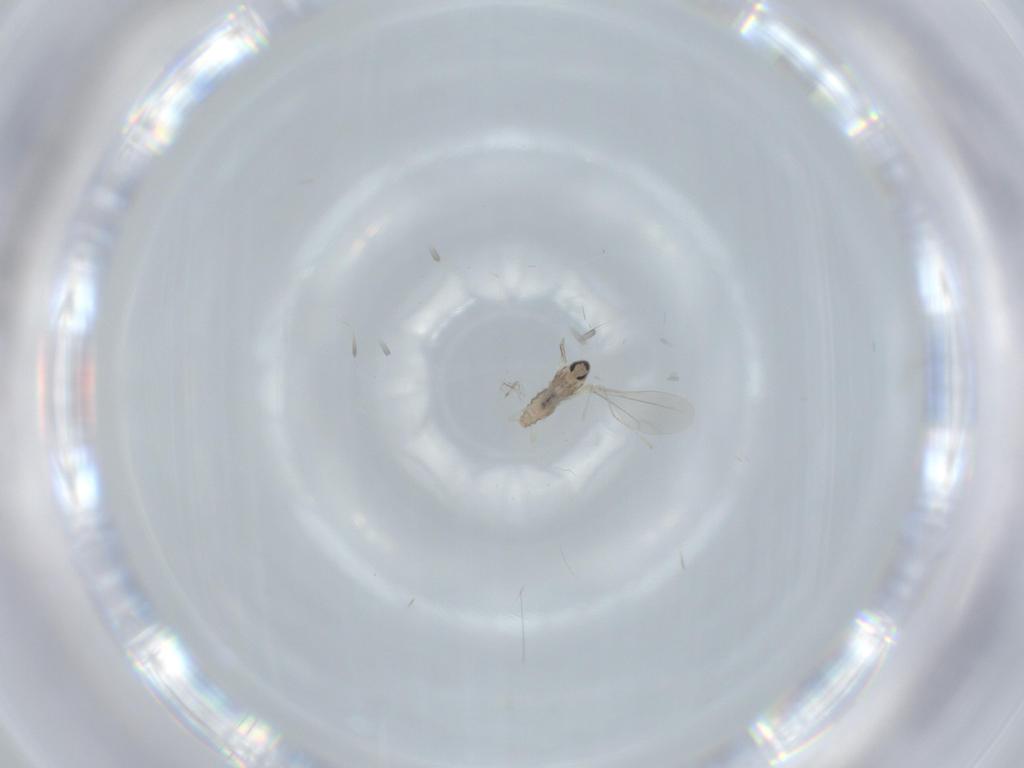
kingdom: Animalia
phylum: Arthropoda
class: Insecta
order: Diptera
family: Cecidomyiidae
